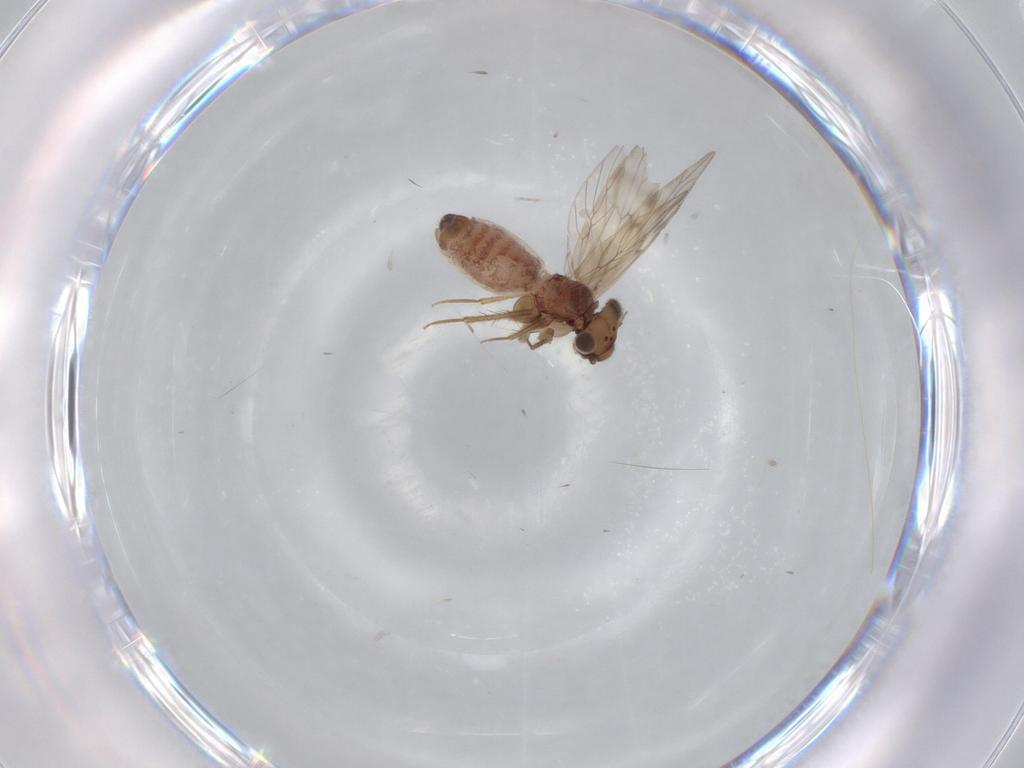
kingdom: Animalia
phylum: Arthropoda
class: Insecta
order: Psocodea
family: Lepidopsocidae
